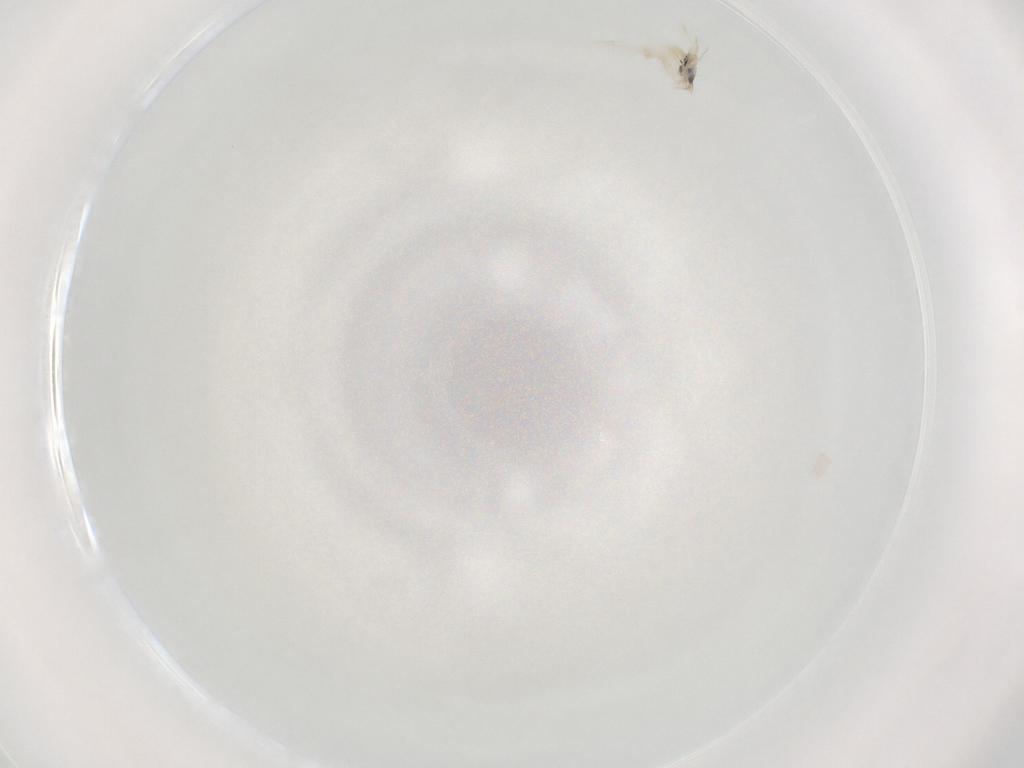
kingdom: Animalia
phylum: Arthropoda
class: Collembola
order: Entomobryomorpha
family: Entomobryidae
